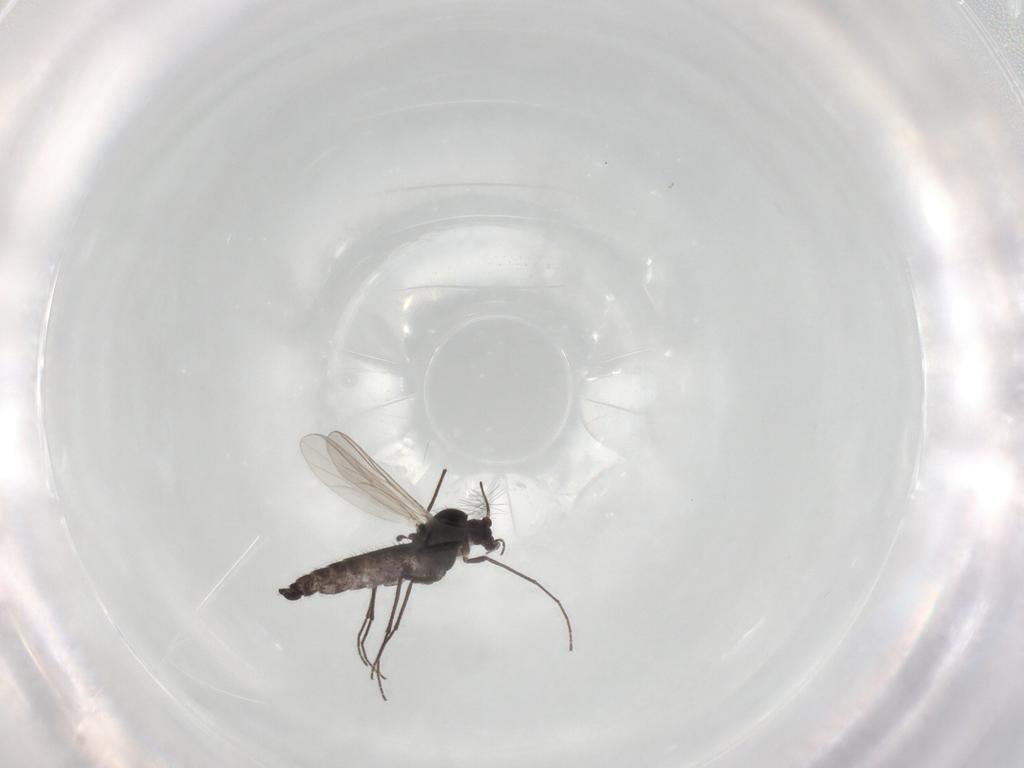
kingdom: Animalia
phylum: Arthropoda
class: Insecta
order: Diptera
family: Chironomidae
